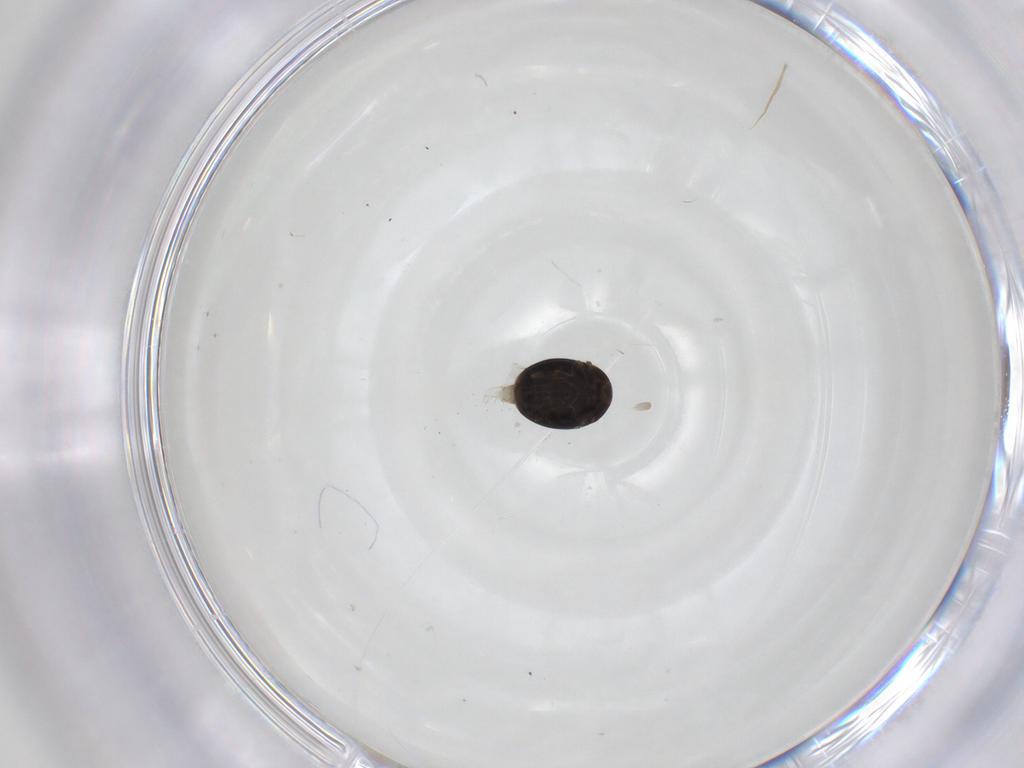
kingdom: Animalia
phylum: Arthropoda
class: Insecta
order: Coleoptera
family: Corylophidae
